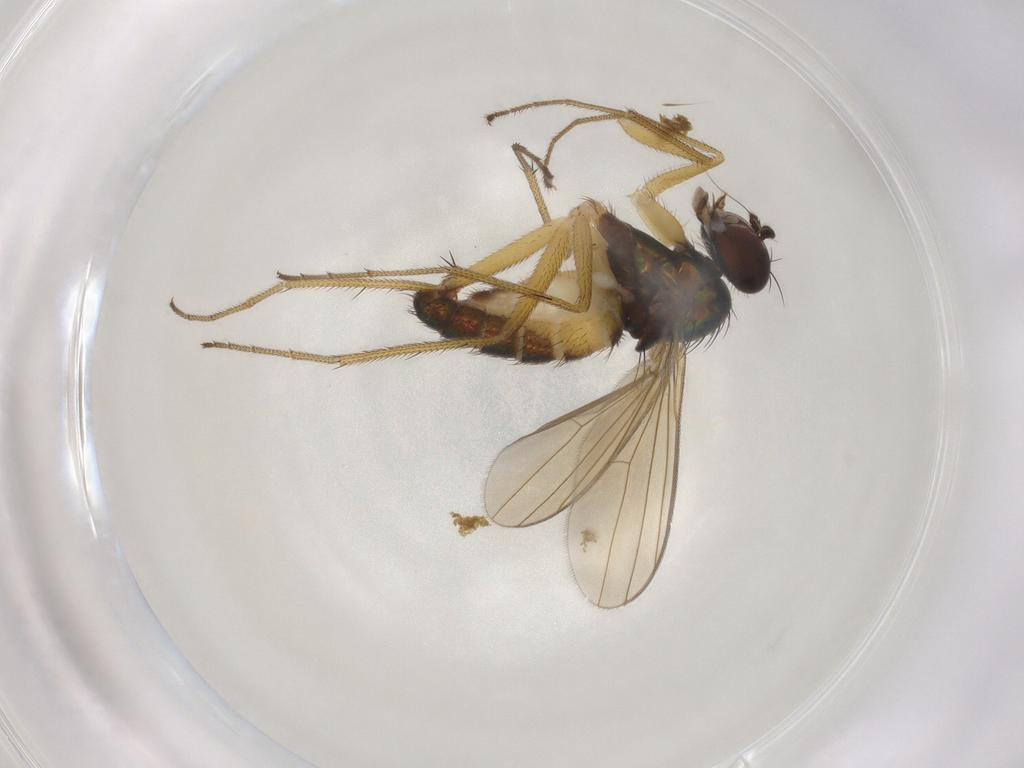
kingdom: Animalia
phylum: Arthropoda
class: Insecta
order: Diptera
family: Dolichopodidae
